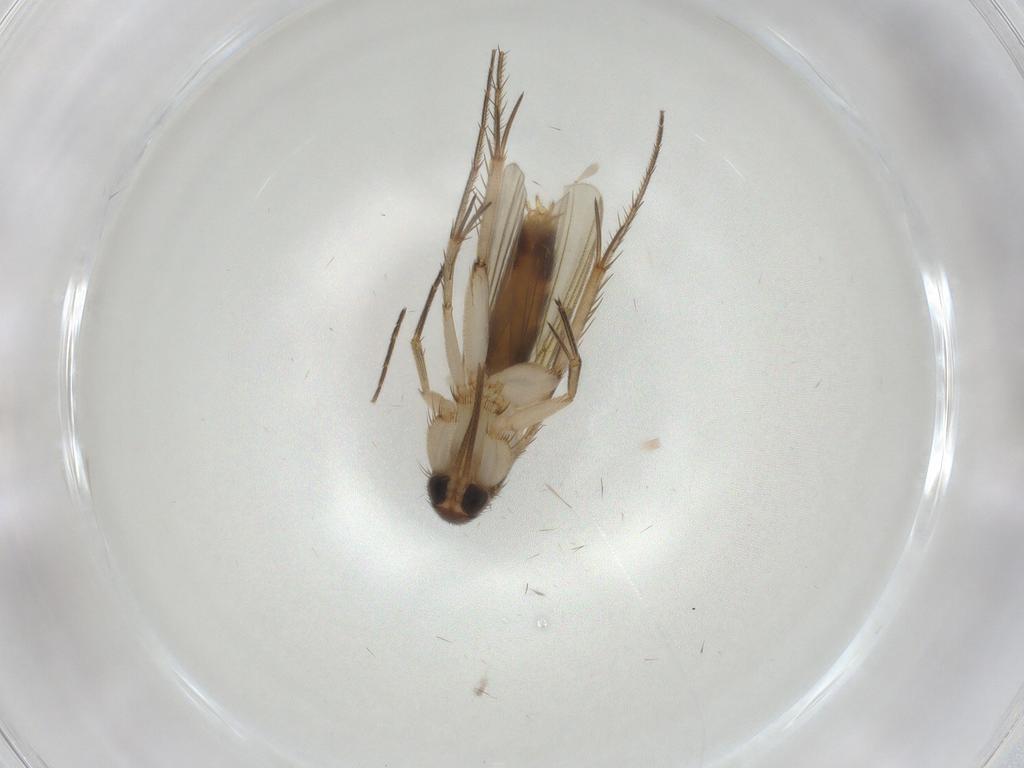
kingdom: Animalia
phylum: Arthropoda
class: Insecta
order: Diptera
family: Mycetophilidae
